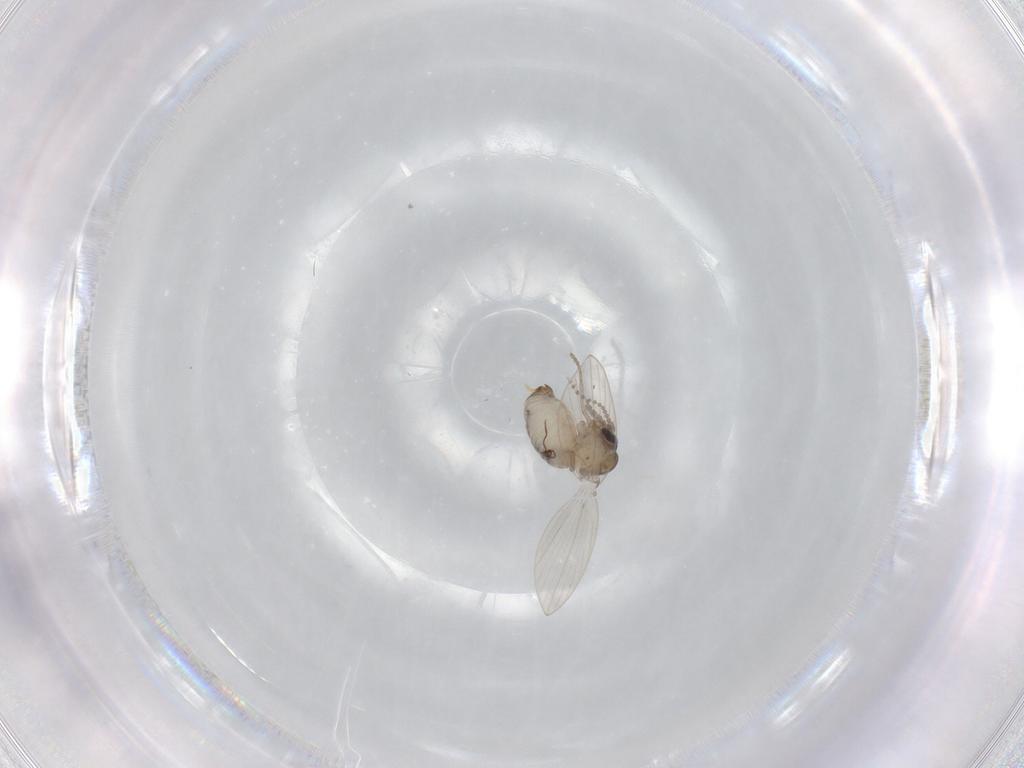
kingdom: Animalia
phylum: Arthropoda
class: Insecta
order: Diptera
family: Psychodidae
